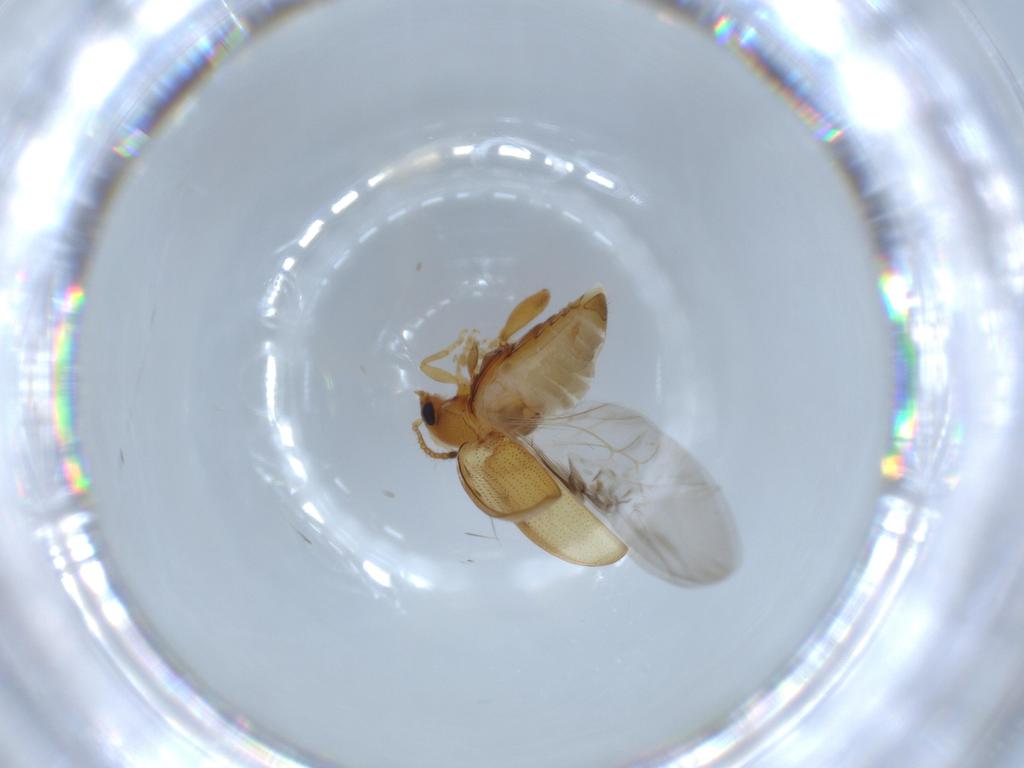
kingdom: Animalia
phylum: Arthropoda
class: Insecta
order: Coleoptera
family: Chrysomelidae
